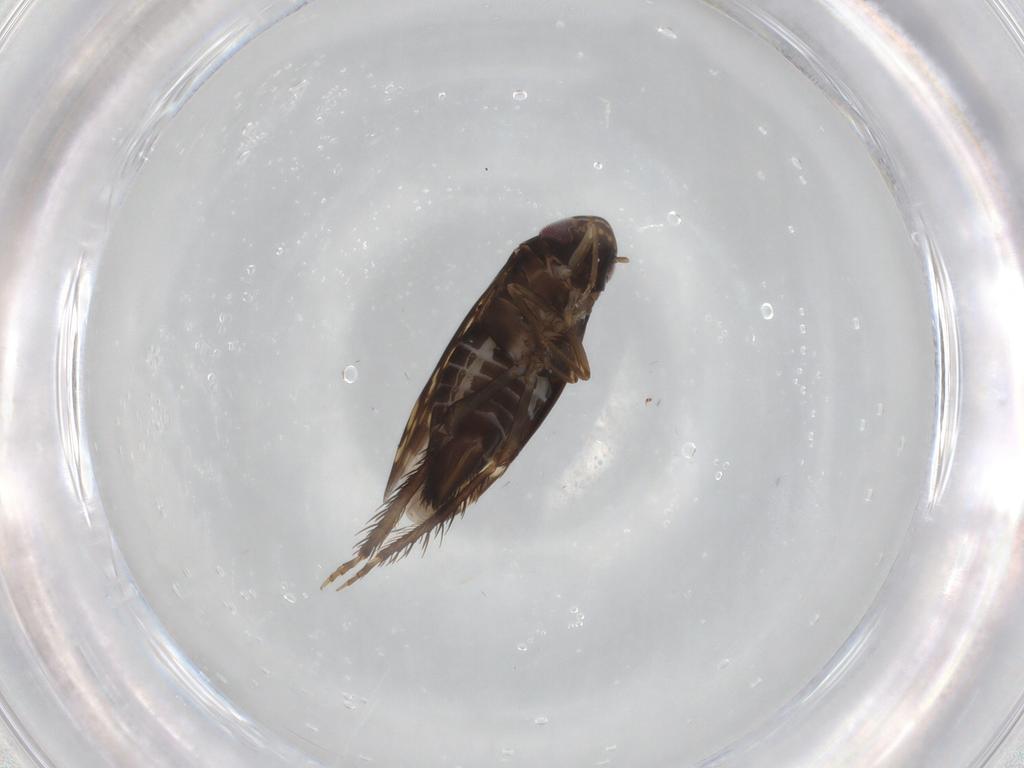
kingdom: Animalia
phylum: Arthropoda
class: Insecta
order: Hemiptera
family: Cicadellidae
